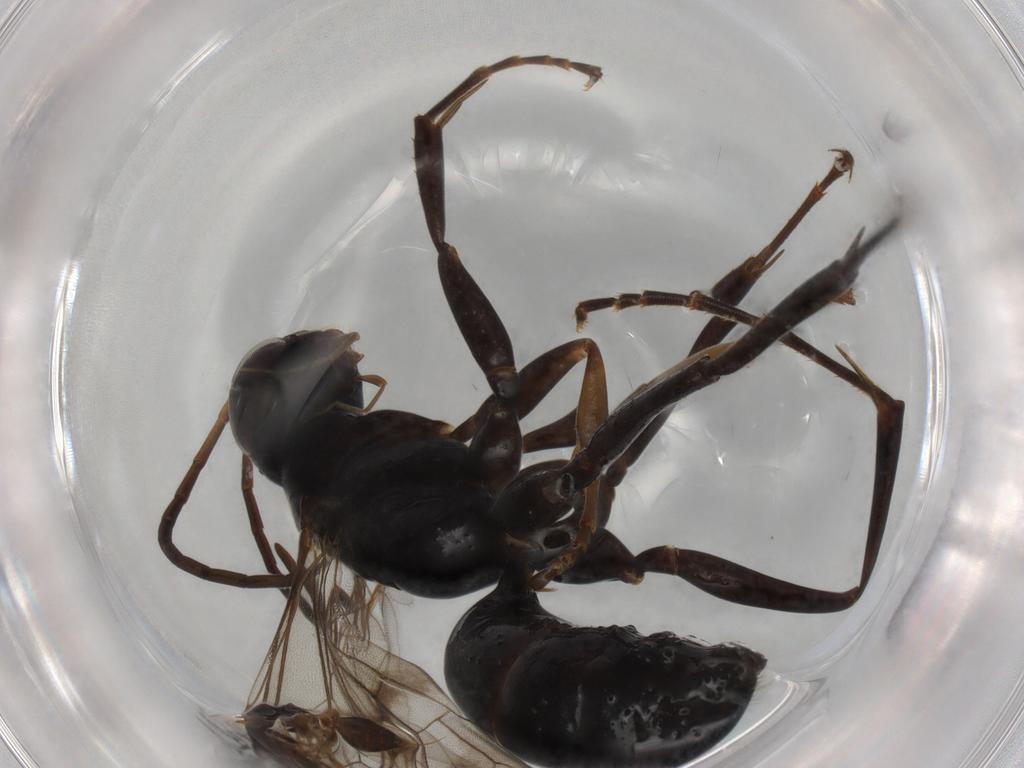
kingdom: Animalia
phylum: Arthropoda
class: Insecta
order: Hymenoptera
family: Pompilidae
